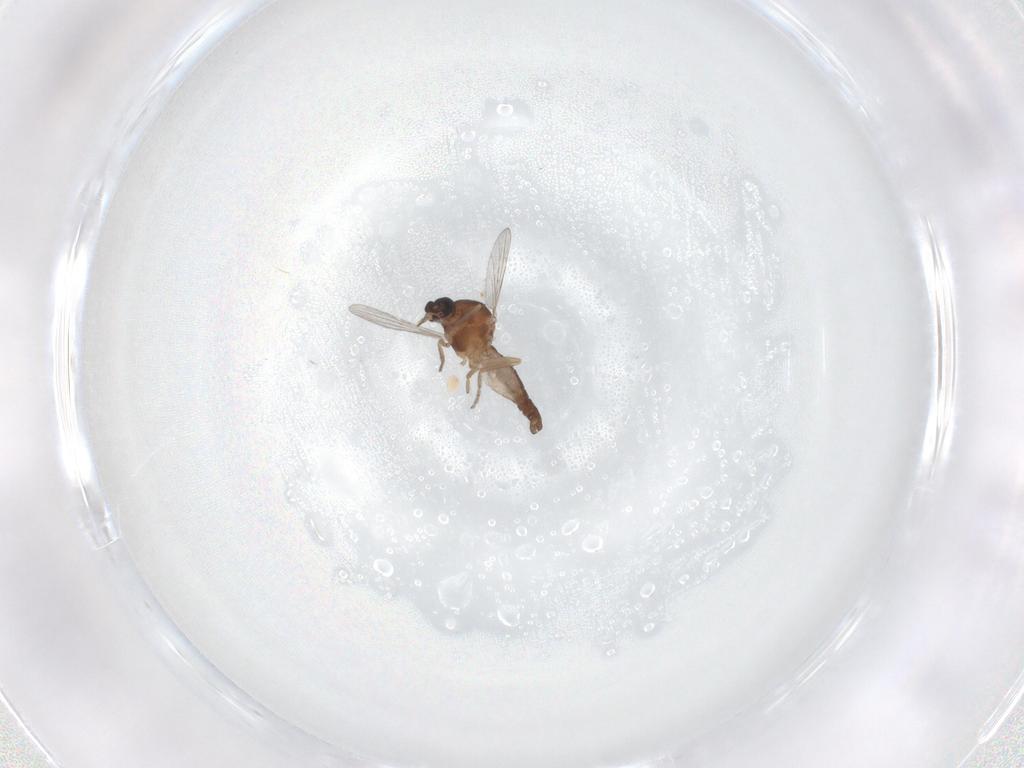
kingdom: Animalia
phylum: Arthropoda
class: Insecta
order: Diptera
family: Ceratopogonidae
